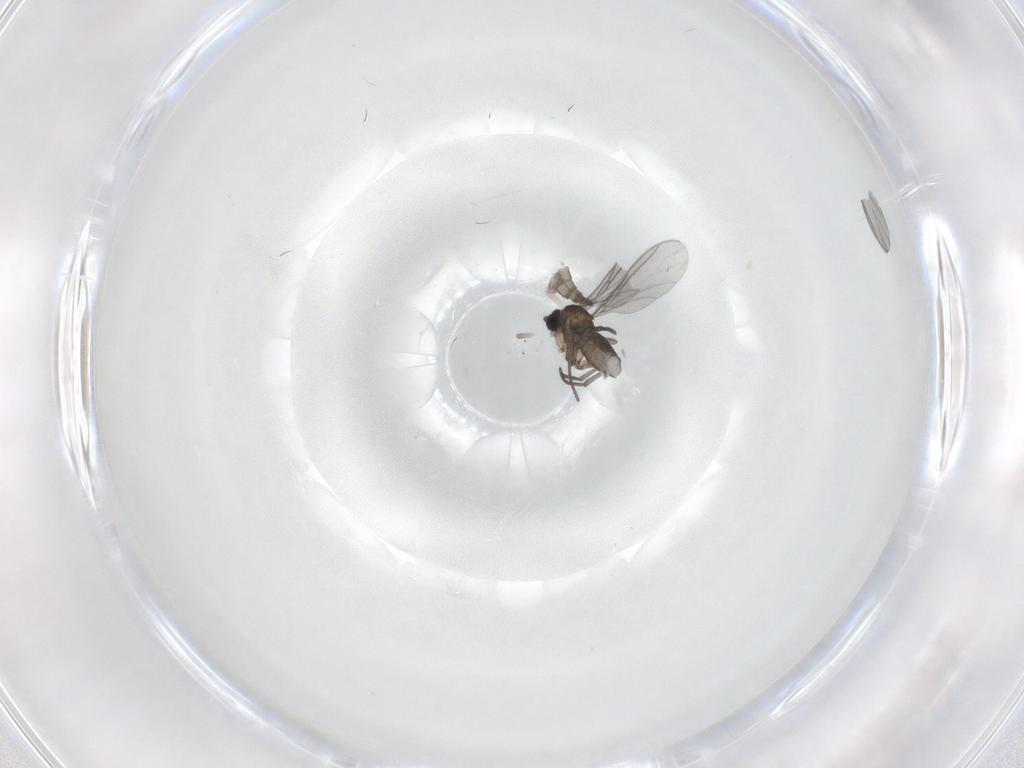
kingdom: Animalia
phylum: Arthropoda
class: Insecta
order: Diptera
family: Sciaridae
